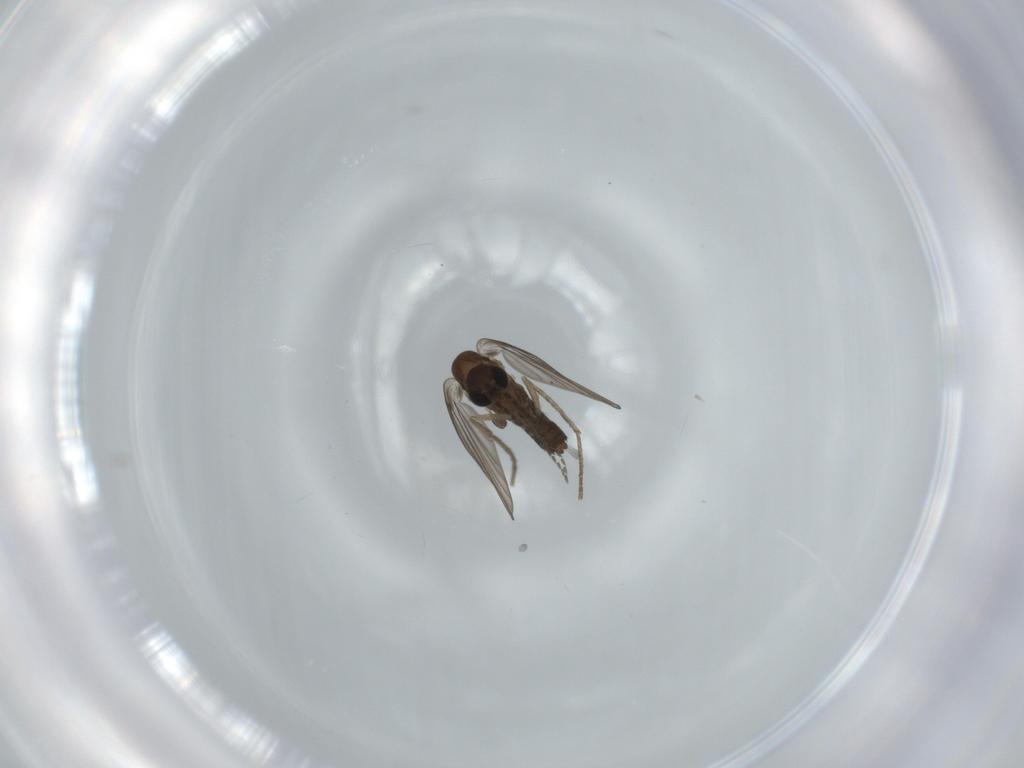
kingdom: Animalia
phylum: Arthropoda
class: Insecta
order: Diptera
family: Psychodidae
